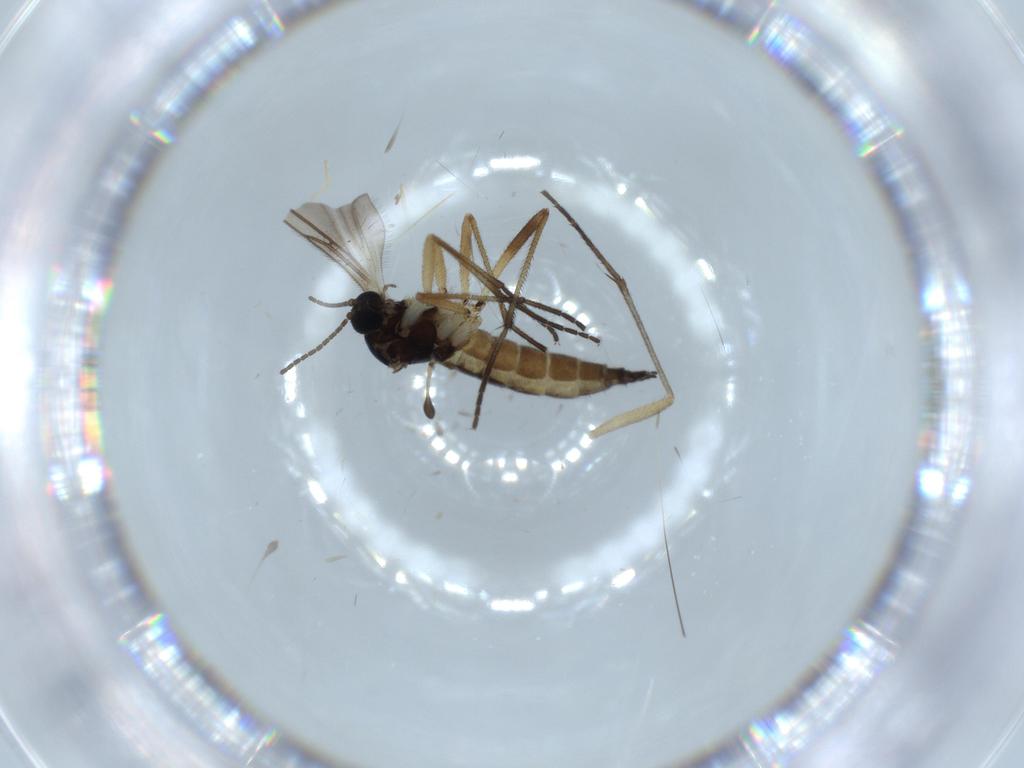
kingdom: Animalia
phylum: Arthropoda
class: Insecta
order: Diptera
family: Sciaridae
